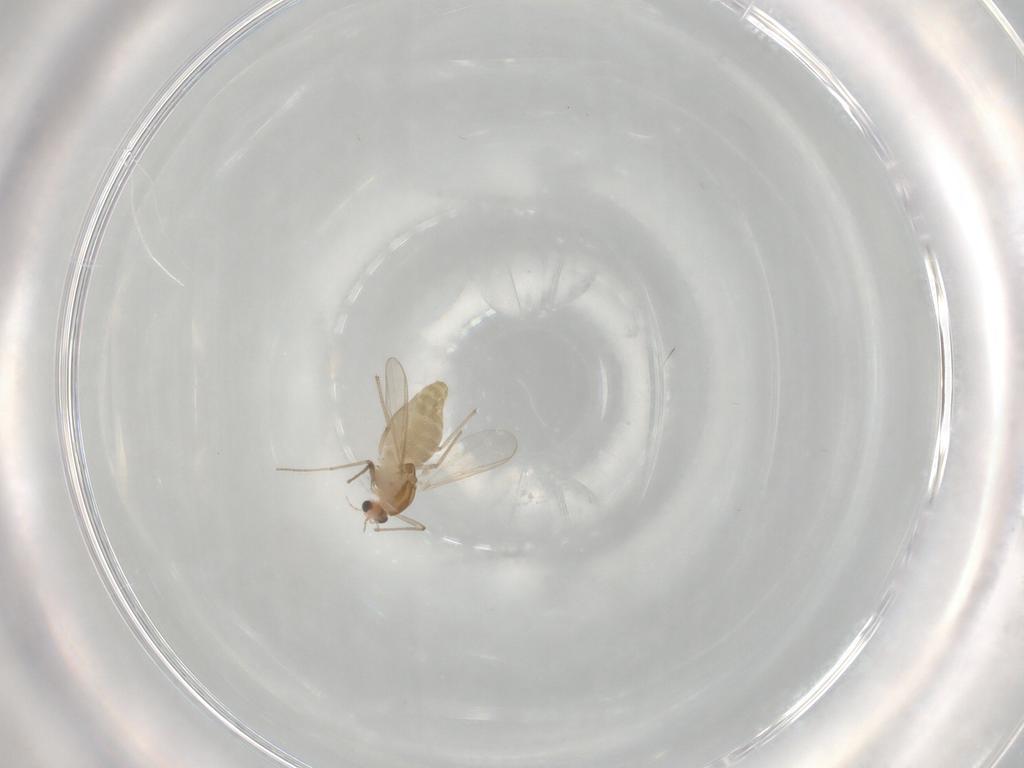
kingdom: Animalia
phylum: Arthropoda
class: Insecta
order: Diptera
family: Chironomidae
